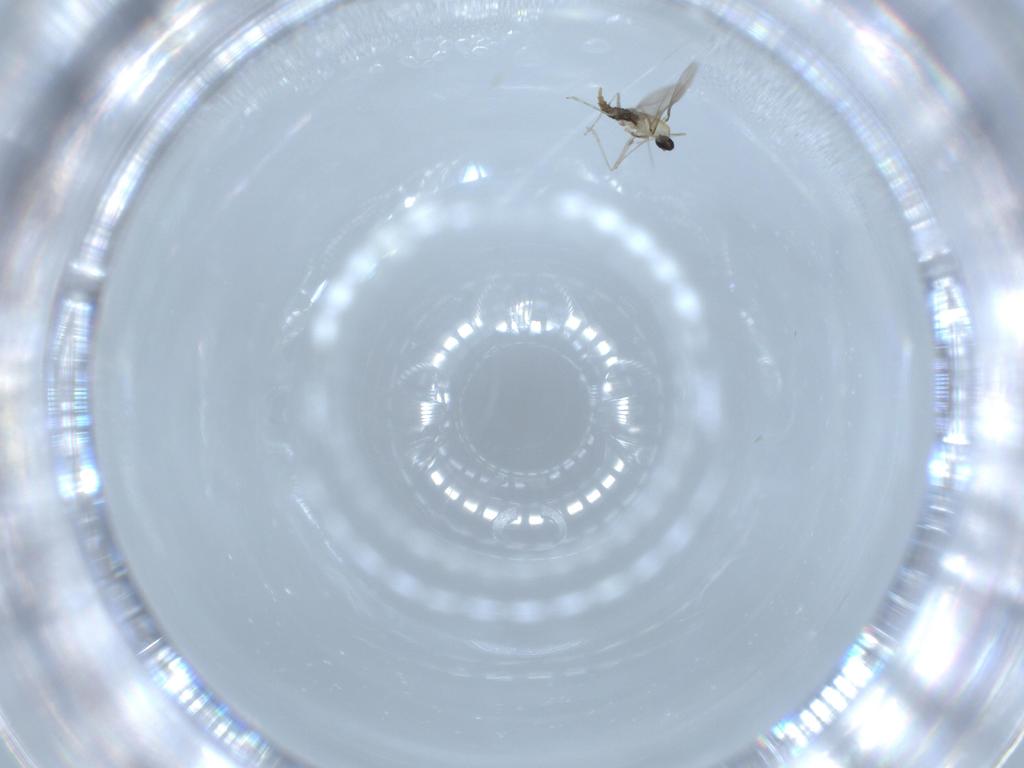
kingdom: Animalia
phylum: Arthropoda
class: Insecta
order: Diptera
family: Cecidomyiidae
